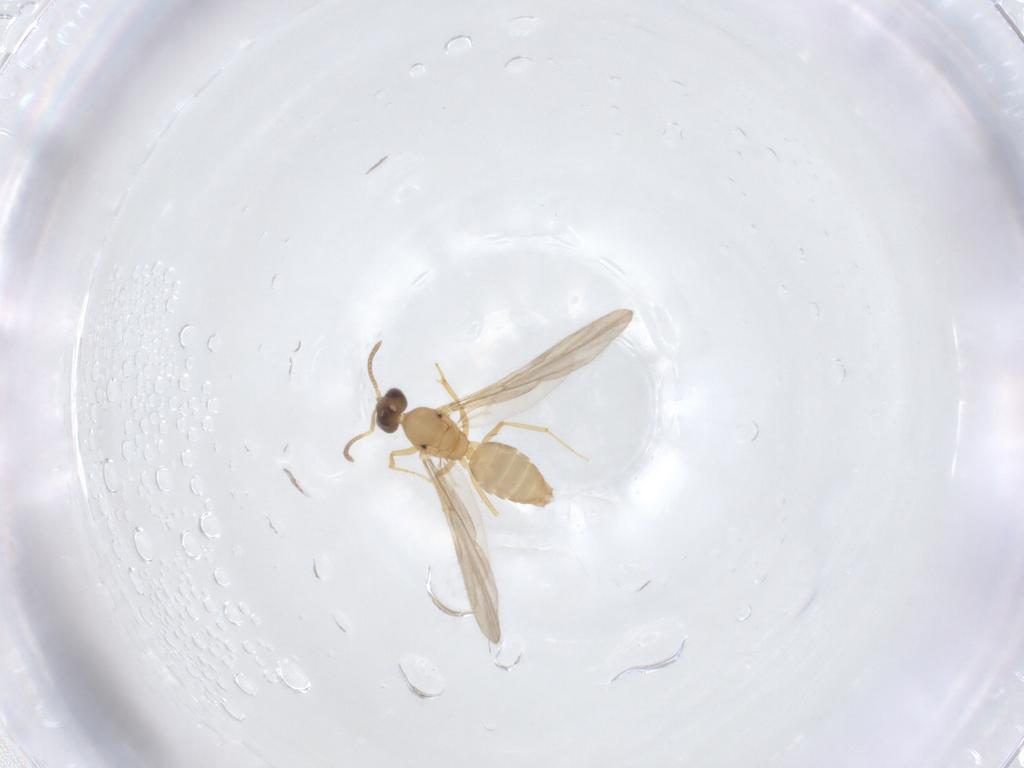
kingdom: Animalia
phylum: Arthropoda
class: Insecta
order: Hymenoptera
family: Formicidae
